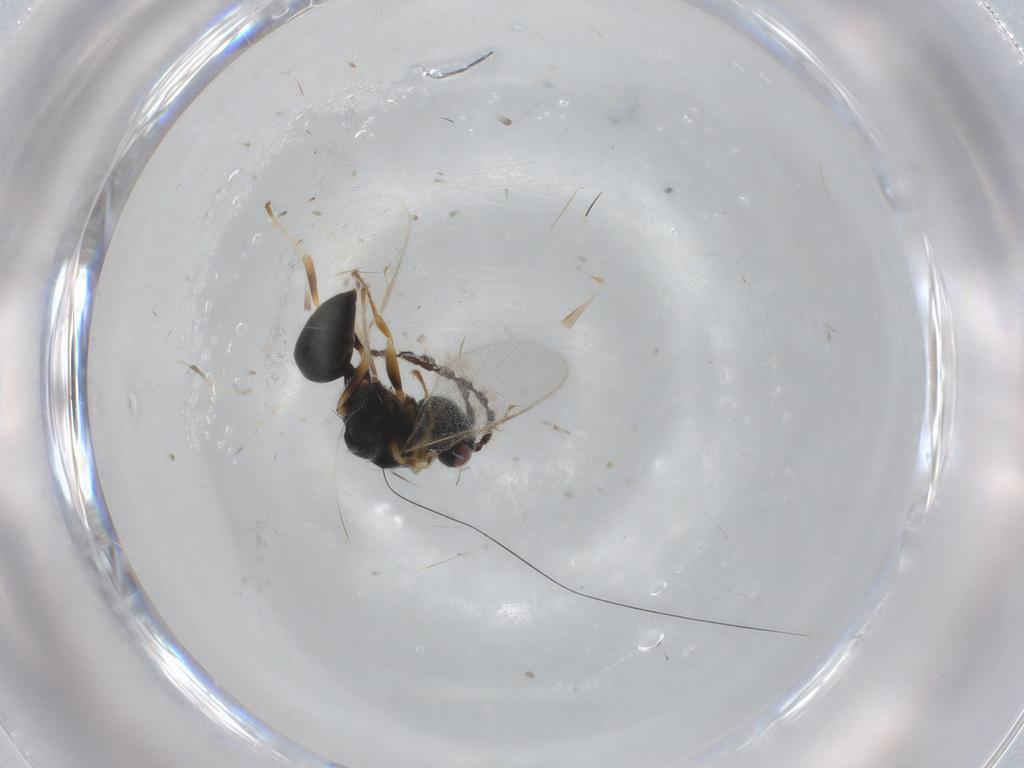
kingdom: Animalia
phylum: Arthropoda
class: Insecta
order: Hymenoptera
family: Eurytomidae
